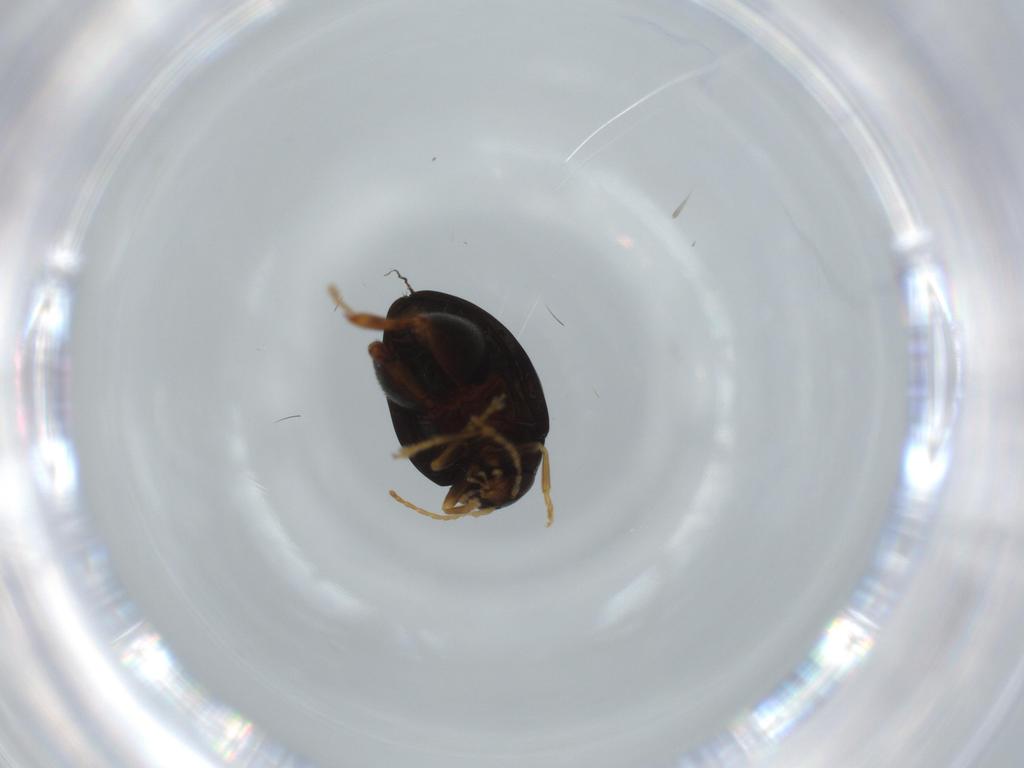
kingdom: Animalia
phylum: Arthropoda
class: Insecta
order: Coleoptera
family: Chrysomelidae
